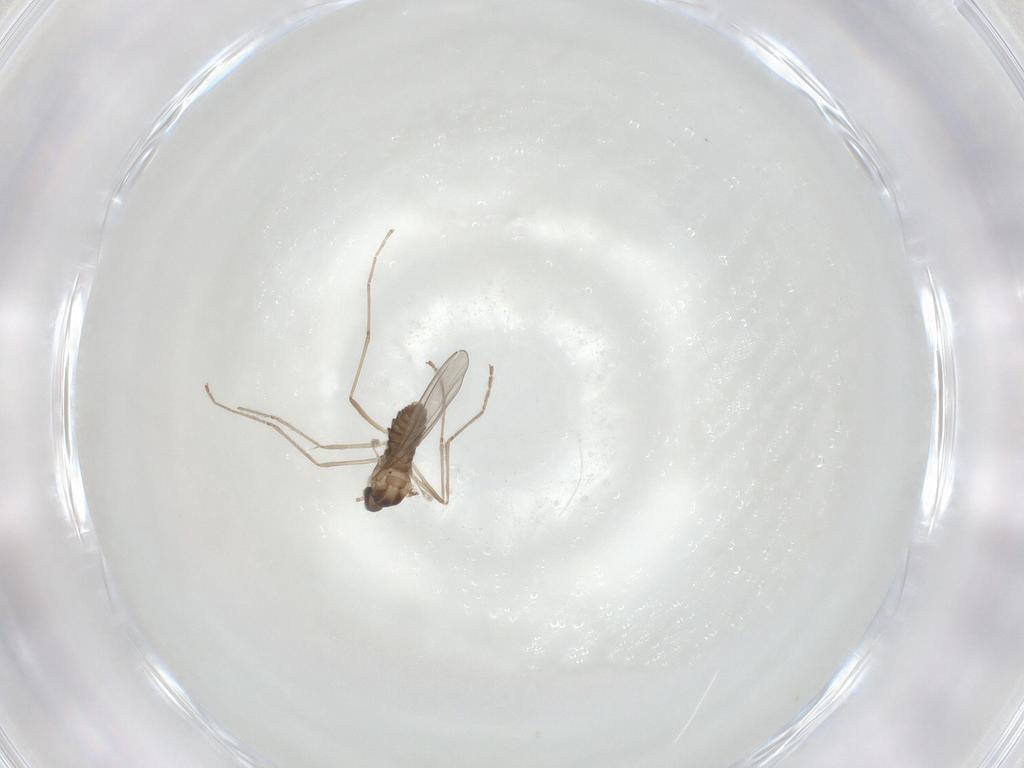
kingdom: Animalia
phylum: Arthropoda
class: Insecta
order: Diptera
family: Cecidomyiidae
